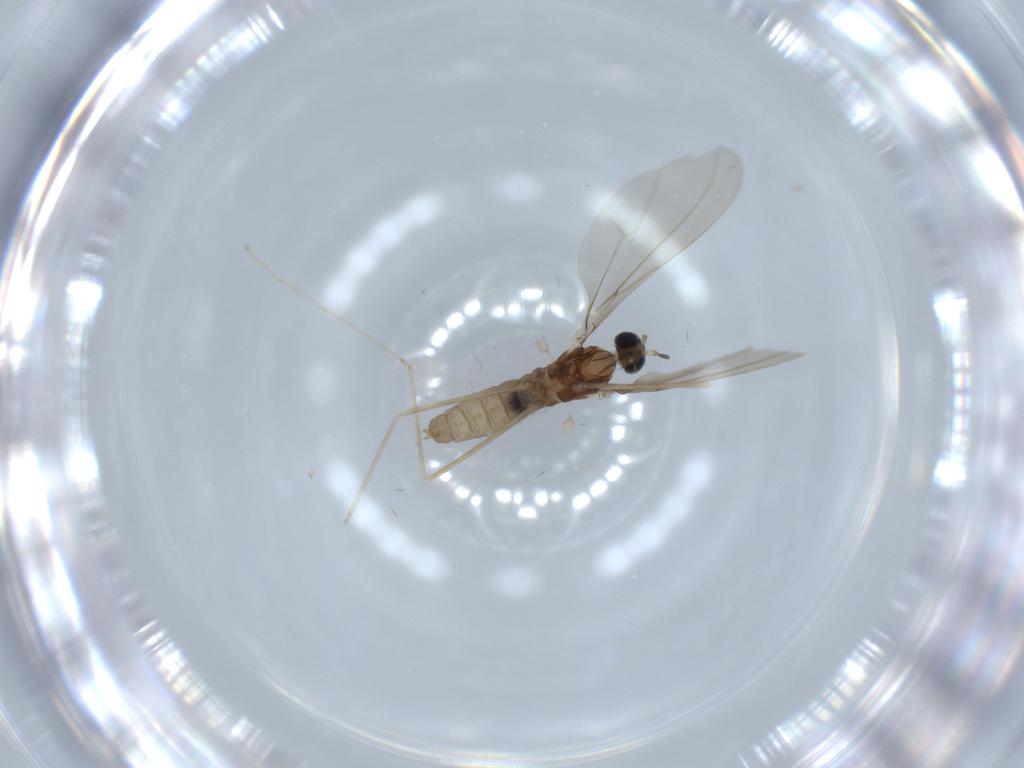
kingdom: Animalia
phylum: Arthropoda
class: Insecta
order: Diptera
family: Cecidomyiidae
